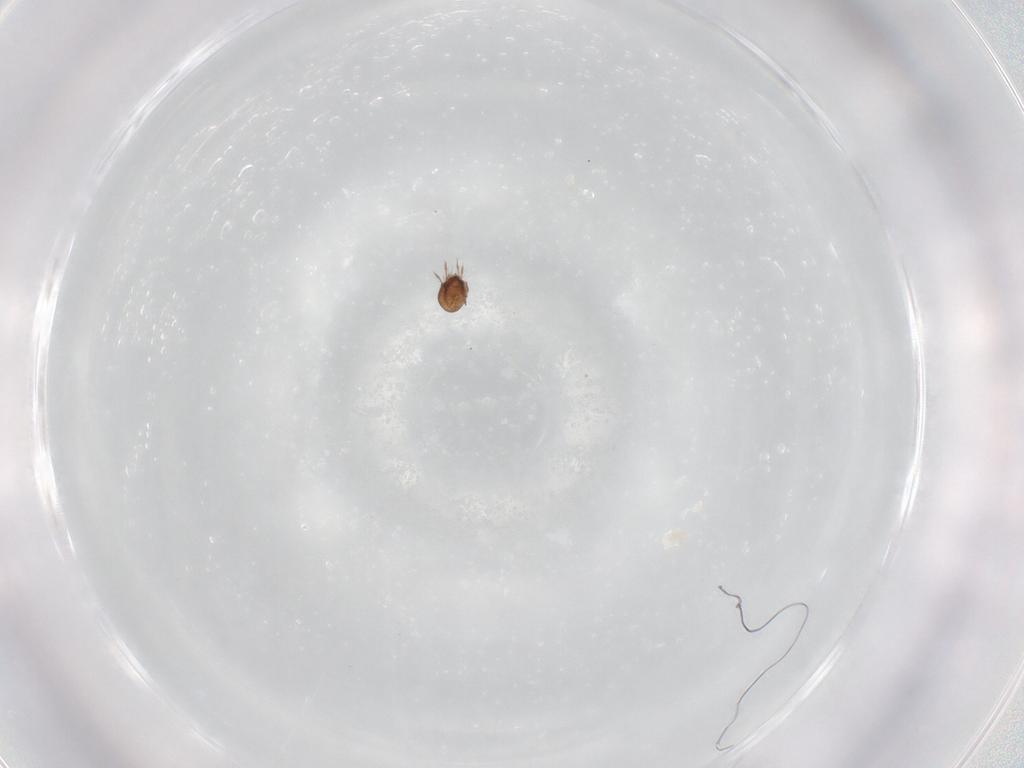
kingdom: Animalia
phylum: Arthropoda
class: Arachnida
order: Sarcoptiformes
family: Ceratozetidae
